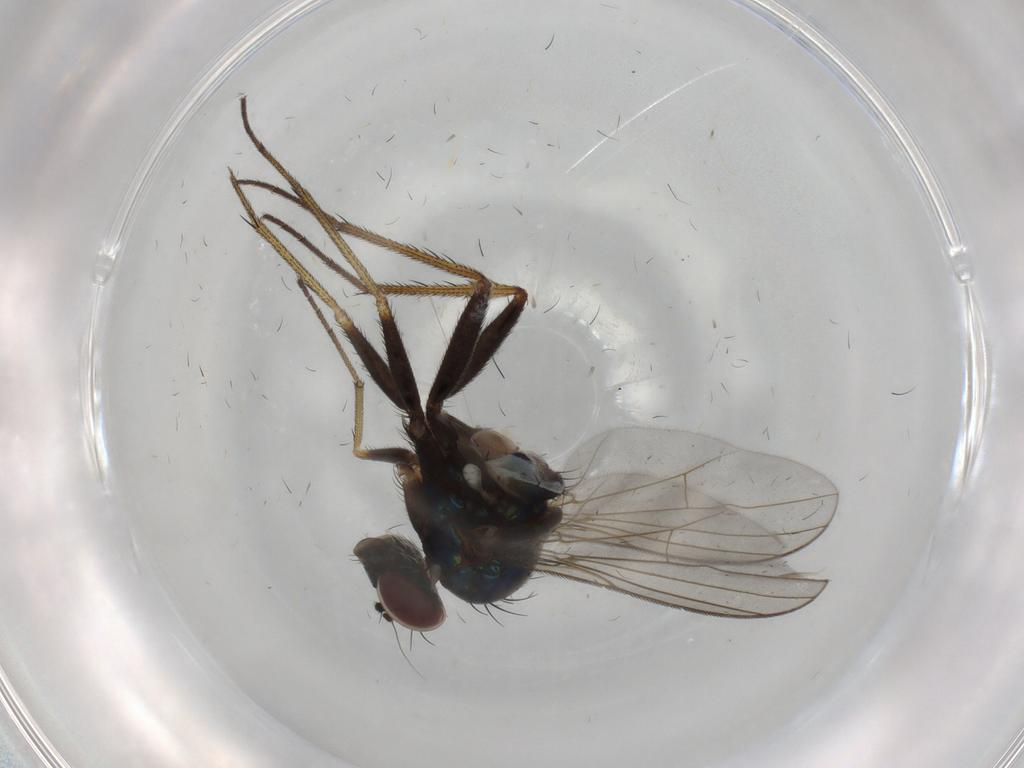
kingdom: Animalia
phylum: Arthropoda
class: Insecta
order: Diptera
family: Dolichopodidae
